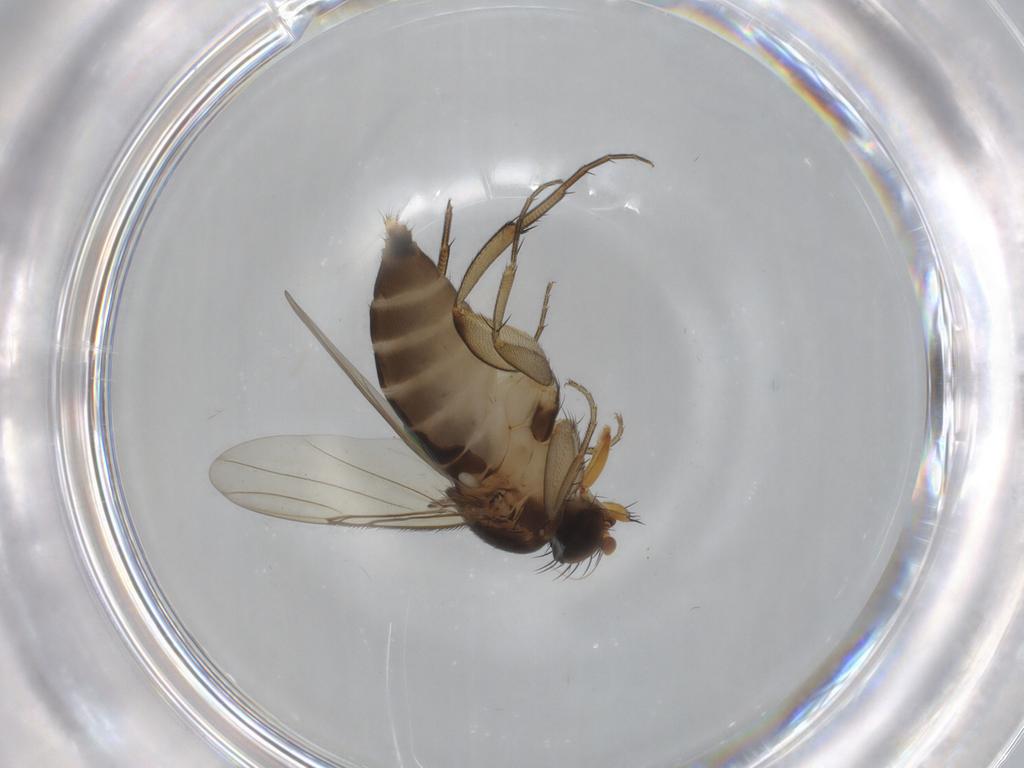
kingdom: Animalia
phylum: Arthropoda
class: Insecta
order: Diptera
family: Phoridae
